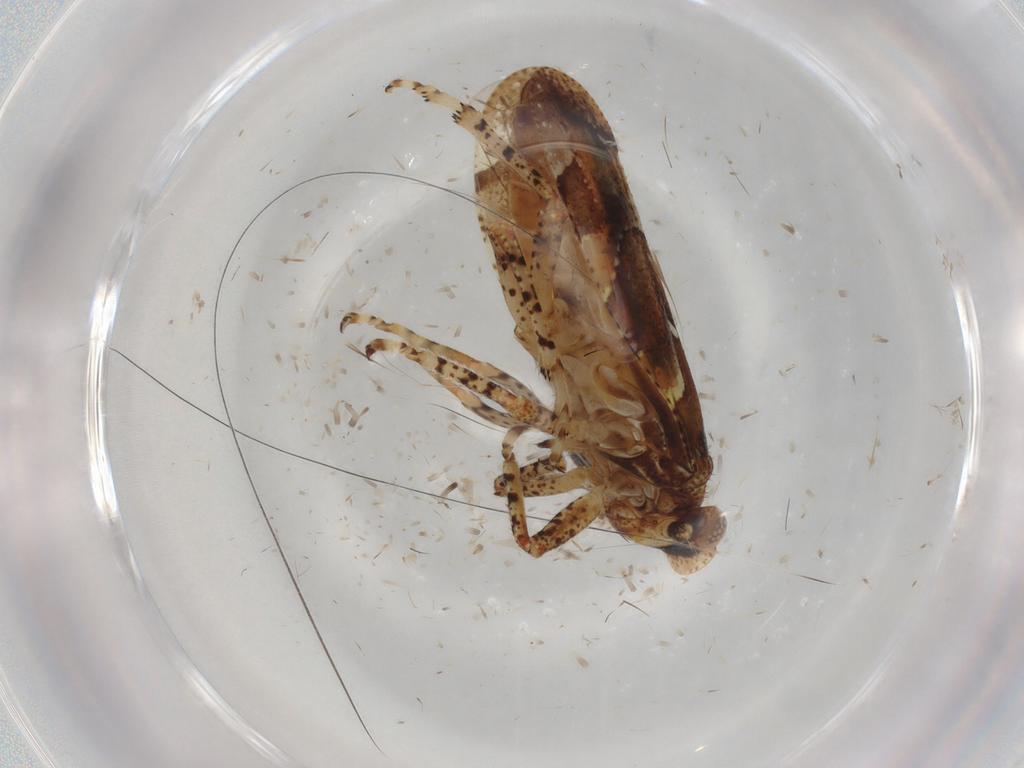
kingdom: Animalia
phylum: Arthropoda
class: Insecta
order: Hemiptera
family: Tettigometridae
